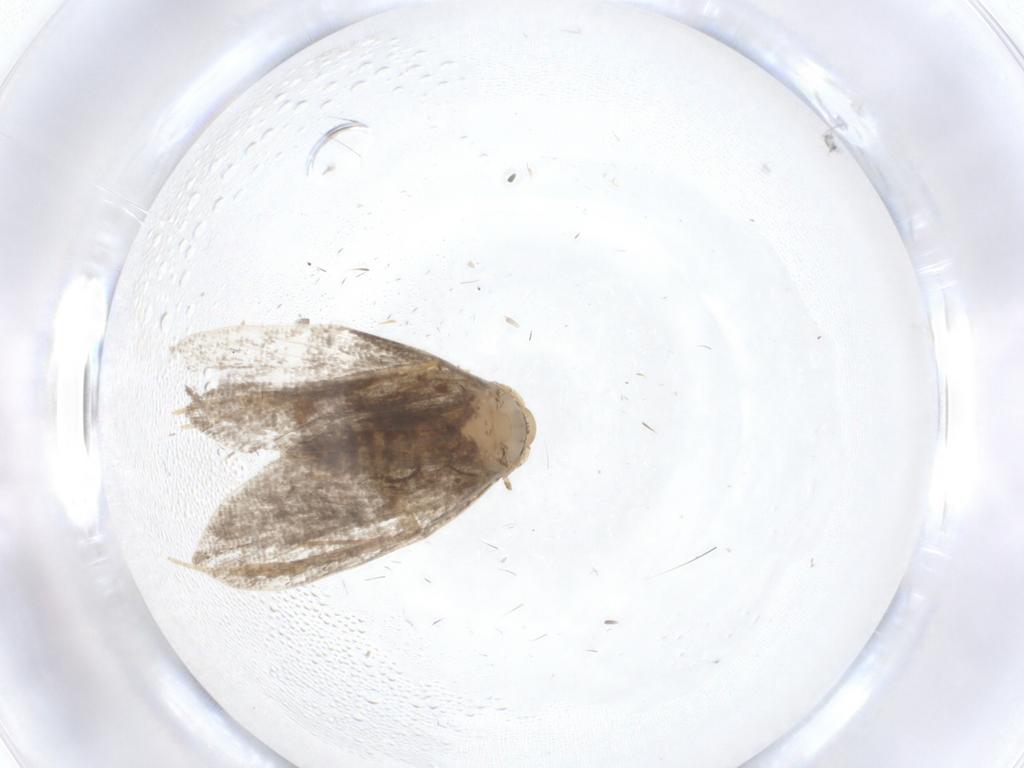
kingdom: Animalia
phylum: Arthropoda
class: Insecta
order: Lepidoptera
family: Psychidae
